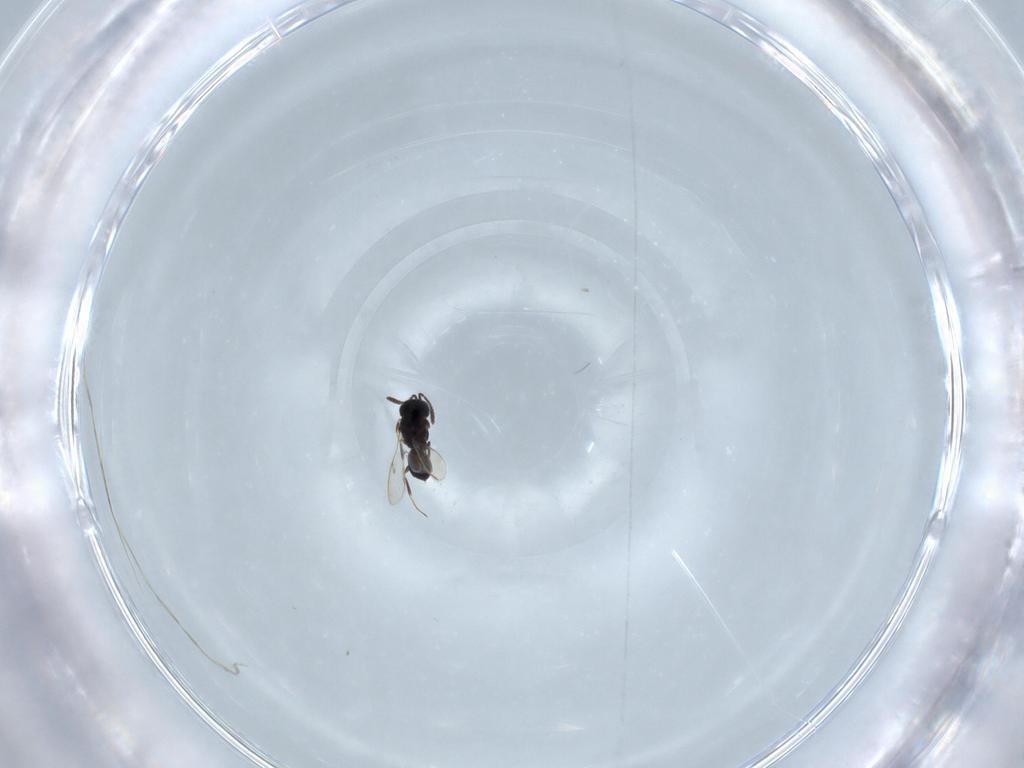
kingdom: Animalia
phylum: Arthropoda
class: Insecta
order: Hymenoptera
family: Scelionidae
